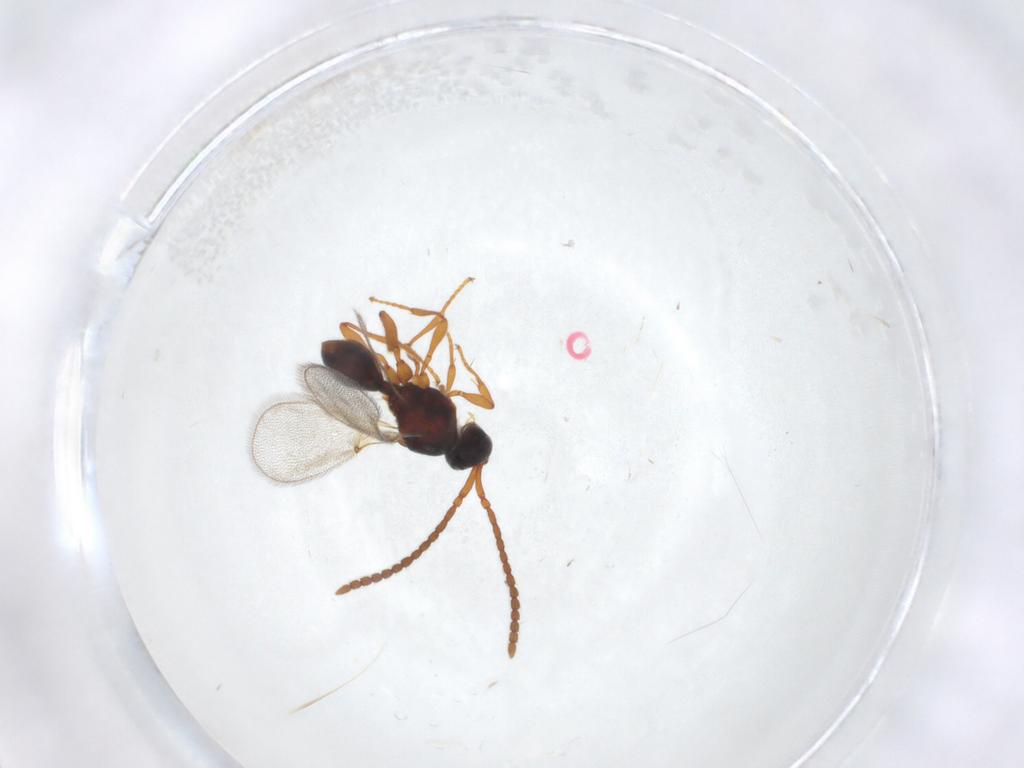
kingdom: Animalia
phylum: Arthropoda
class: Insecta
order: Hymenoptera
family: Diapriidae
